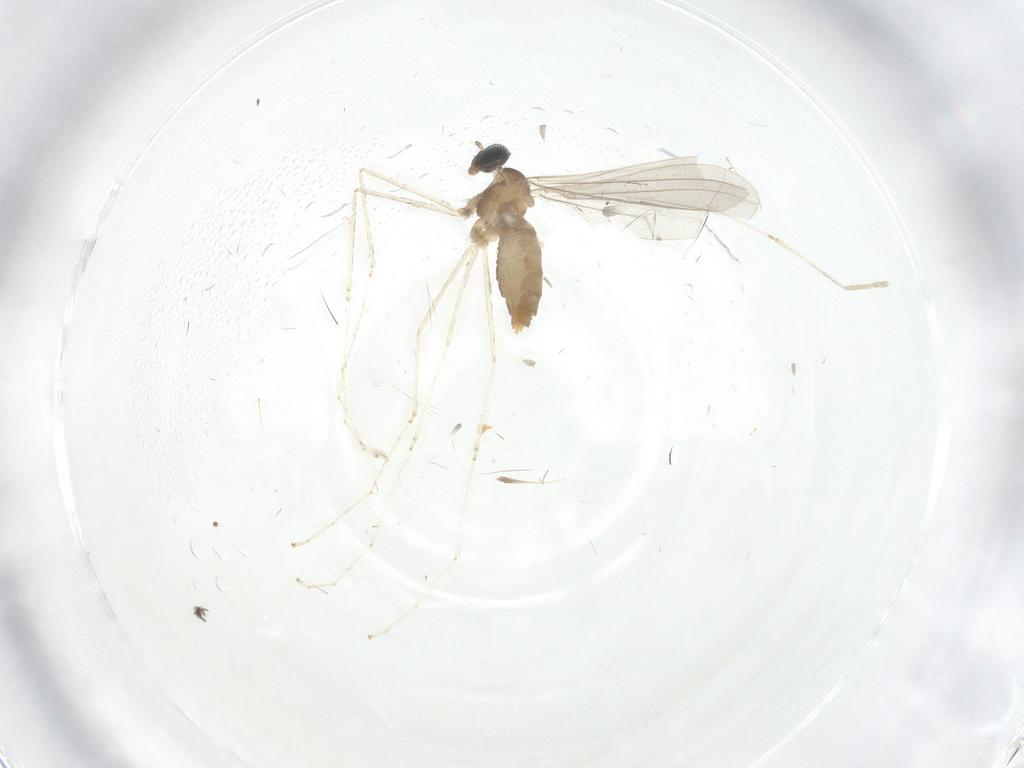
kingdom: Animalia
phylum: Arthropoda
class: Insecta
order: Diptera
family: Cecidomyiidae
